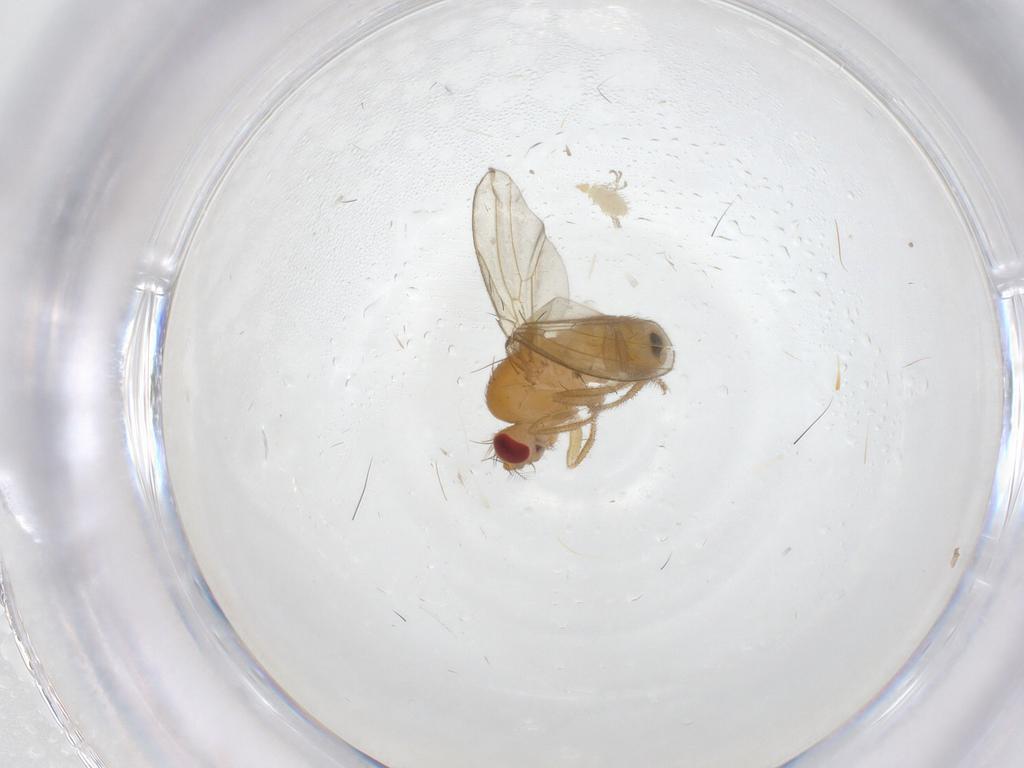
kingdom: Animalia
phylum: Arthropoda
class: Insecta
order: Diptera
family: Drosophilidae
